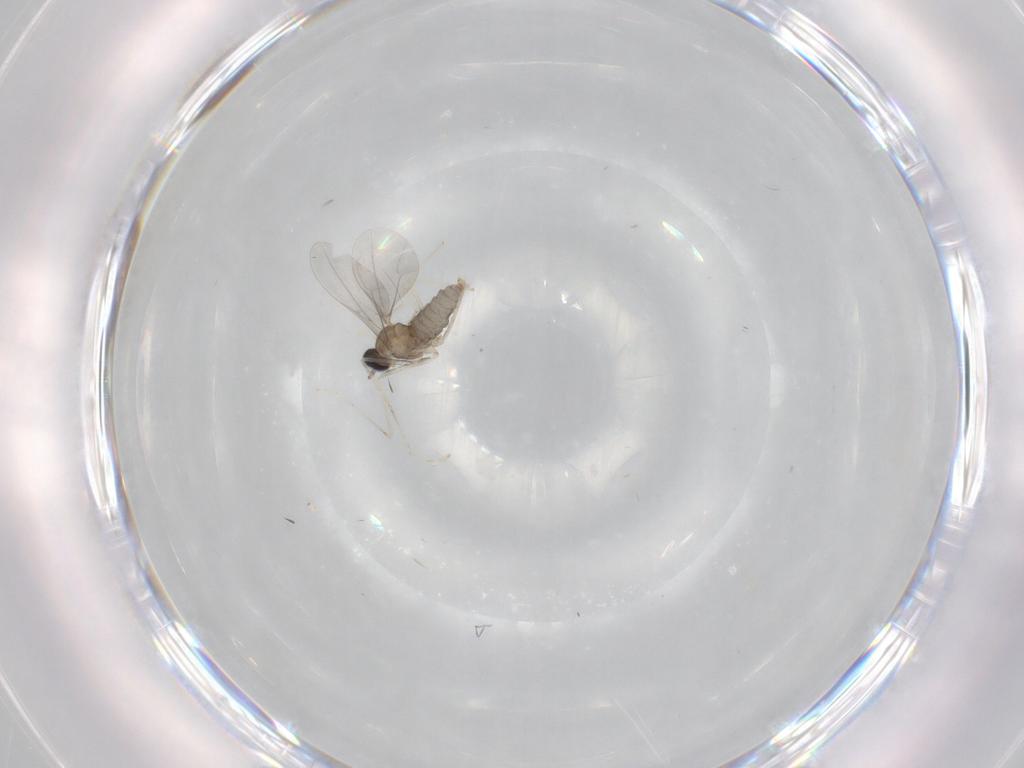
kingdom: Animalia
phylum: Arthropoda
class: Insecta
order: Diptera
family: Cecidomyiidae
